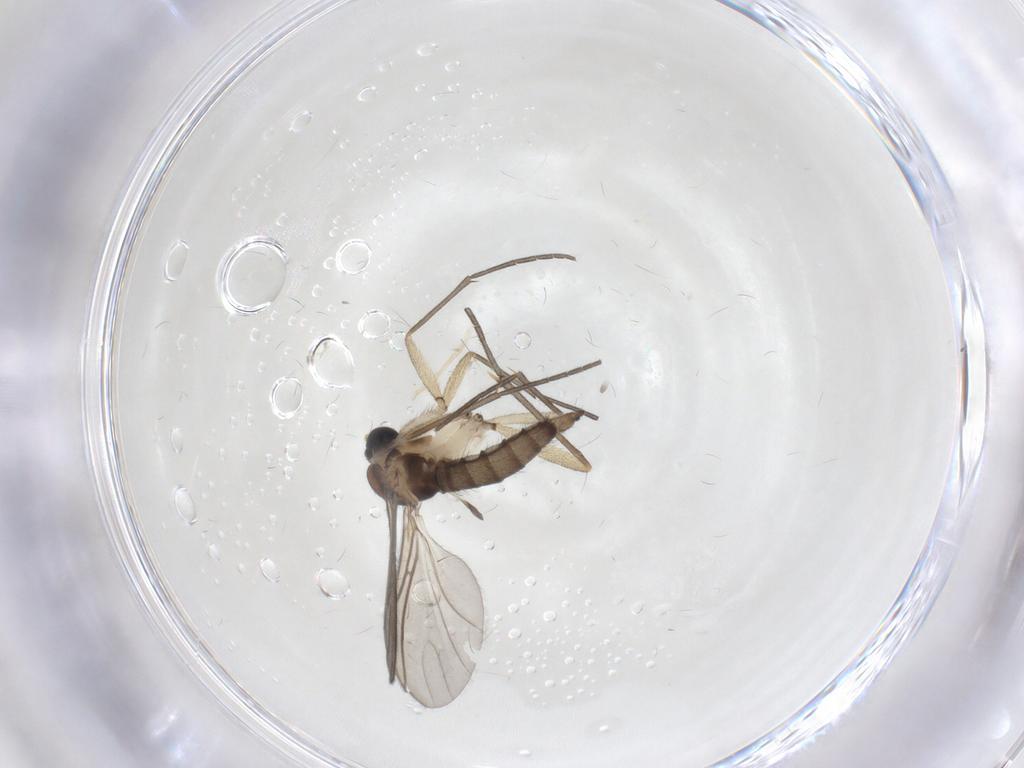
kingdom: Animalia
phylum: Arthropoda
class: Insecta
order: Diptera
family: Sciaridae
